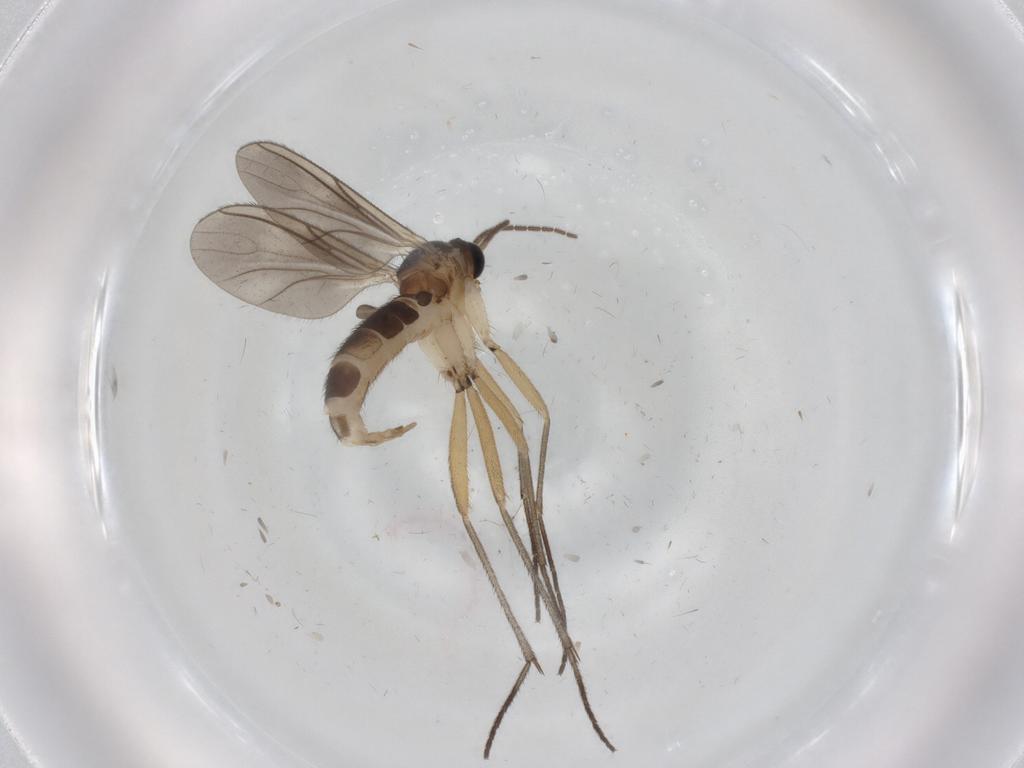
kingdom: Animalia
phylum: Arthropoda
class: Insecta
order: Diptera
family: Sciaridae
